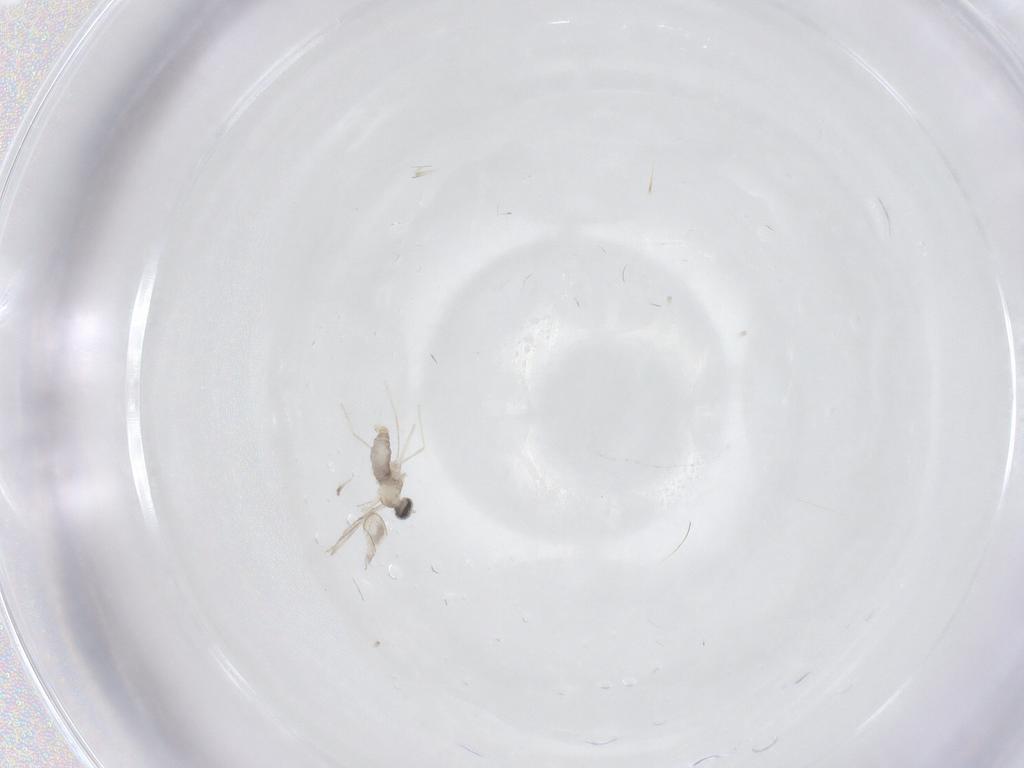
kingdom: Animalia
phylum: Arthropoda
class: Insecta
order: Diptera
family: Cecidomyiidae
